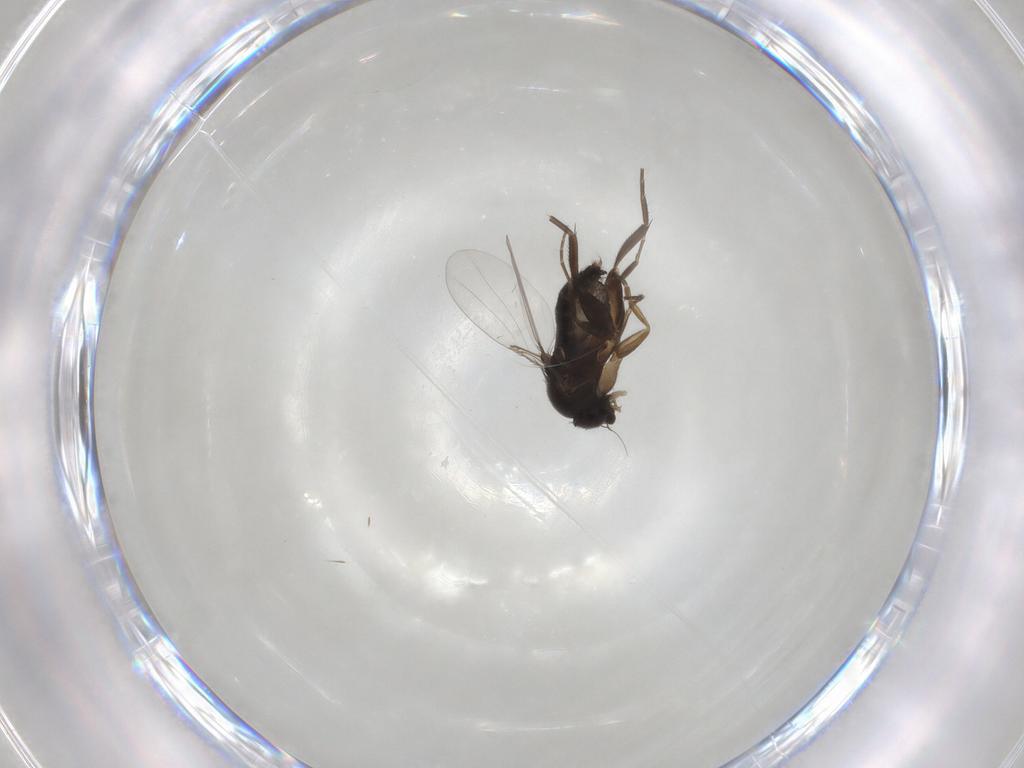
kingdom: Animalia
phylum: Arthropoda
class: Insecta
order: Diptera
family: Phoridae
